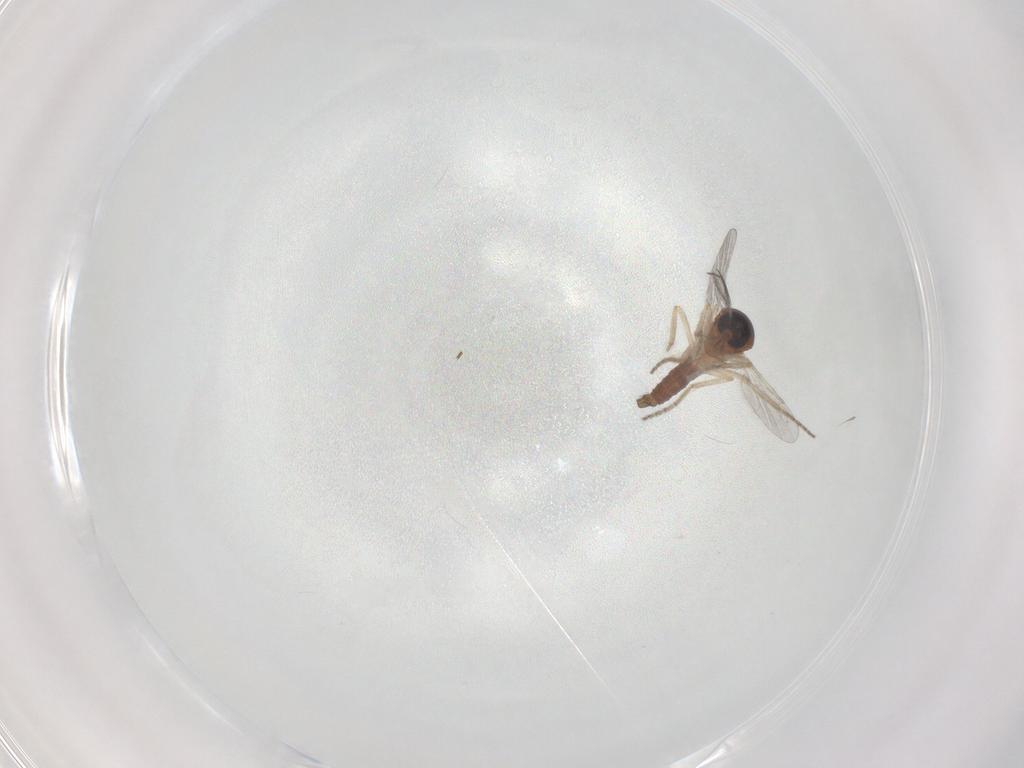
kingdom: Animalia
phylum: Arthropoda
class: Insecta
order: Diptera
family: Ceratopogonidae
